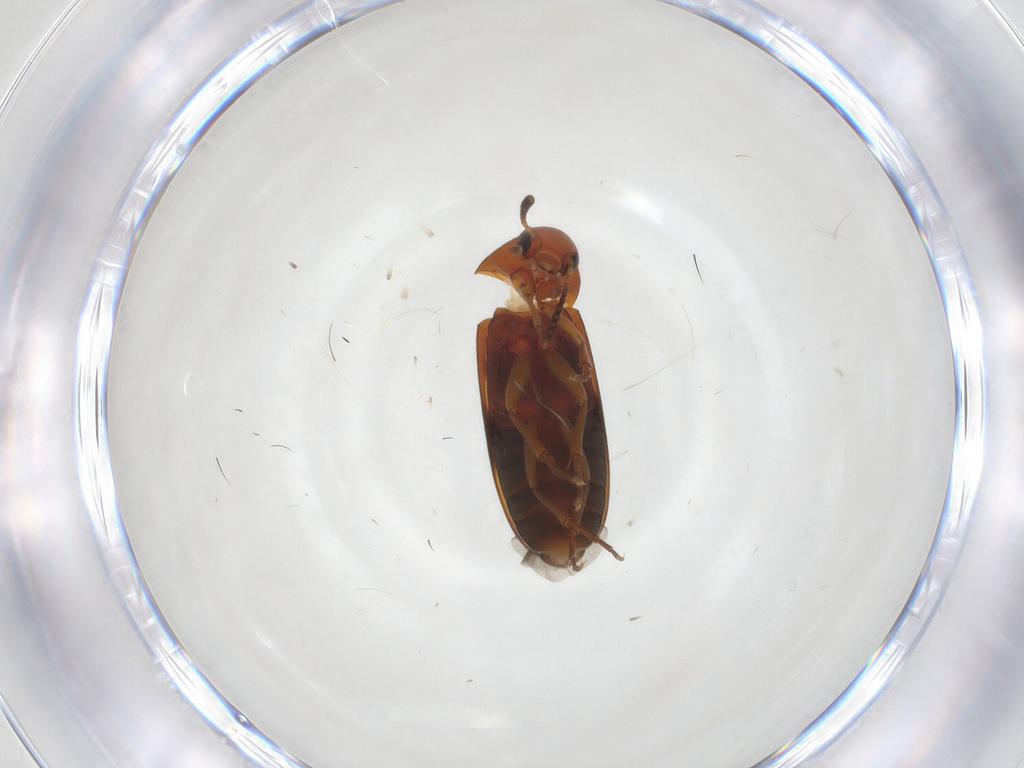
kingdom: Animalia
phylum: Arthropoda
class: Insecta
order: Coleoptera
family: Scraptiidae
